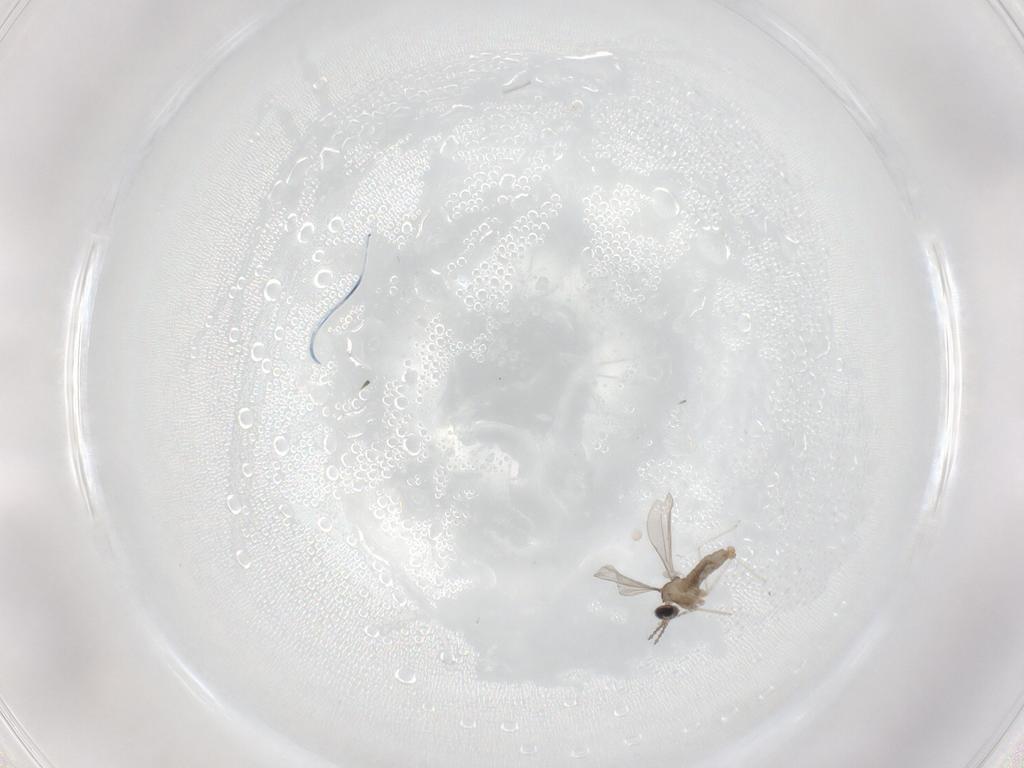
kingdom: Animalia
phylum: Arthropoda
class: Insecta
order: Diptera
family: Cecidomyiidae
